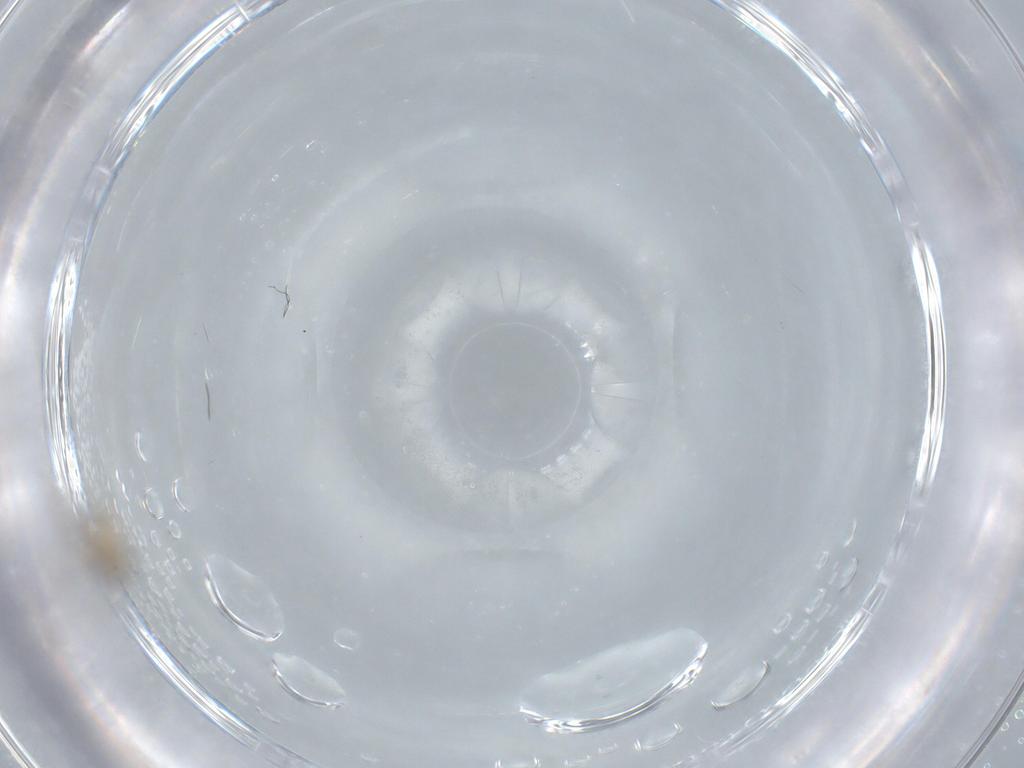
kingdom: Animalia
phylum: Arthropoda
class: Insecta
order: Diptera
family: Cecidomyiidae
